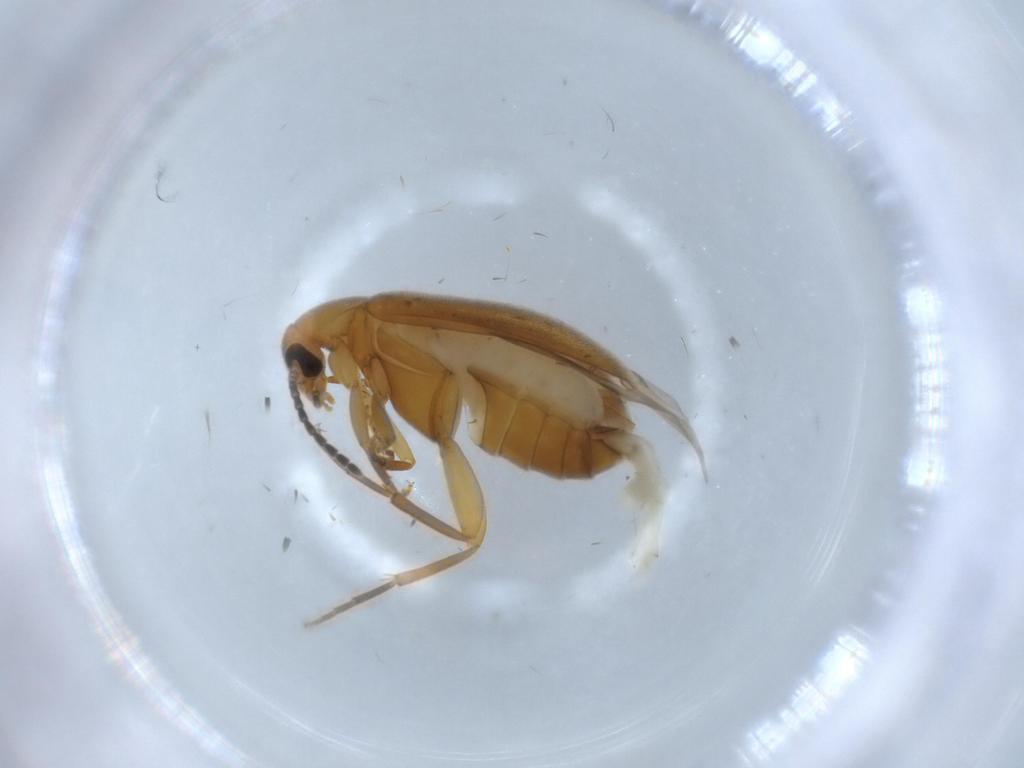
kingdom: Animalia
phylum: Arthropoda
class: Insecta
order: Coleoptera
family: Scraptiidae
